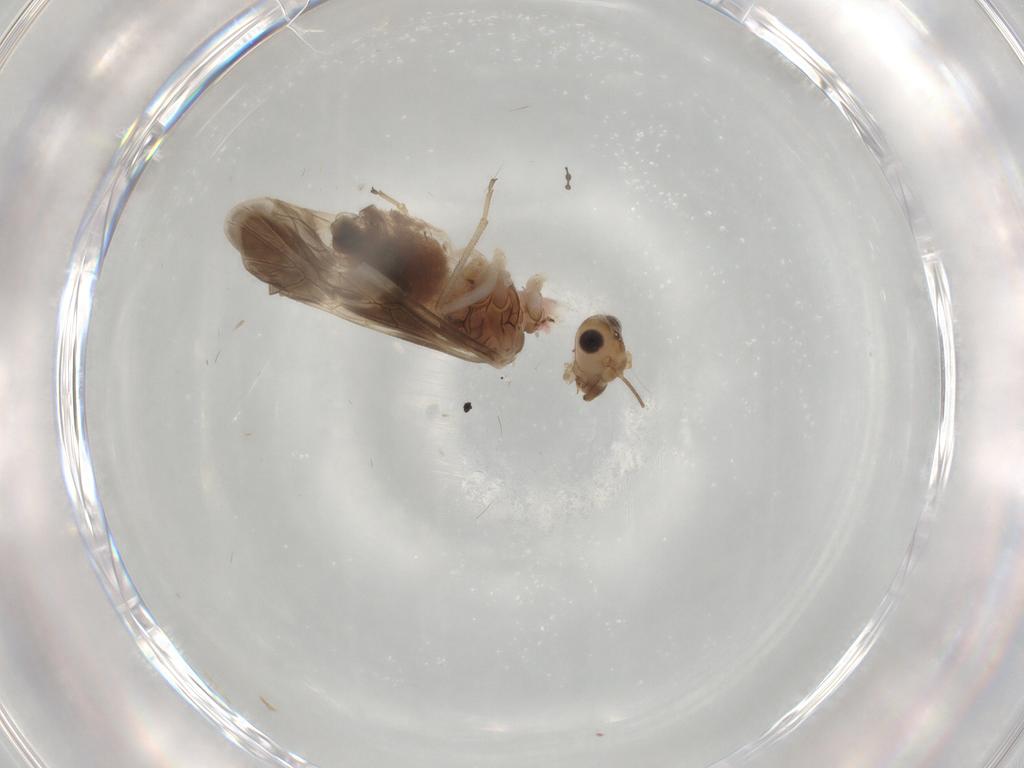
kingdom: Animalia
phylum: Arthropoda
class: Insecta
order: Psocodea
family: Caeciliusidae
